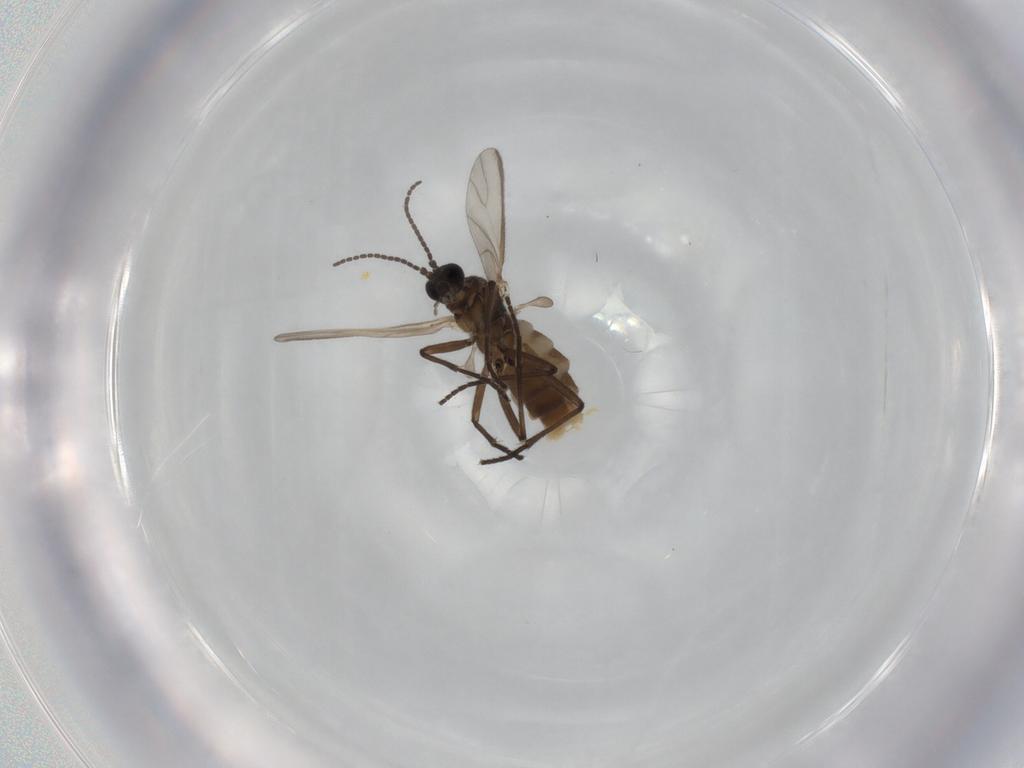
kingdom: Animalia
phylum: Arthropoda
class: Insecta
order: Diptera
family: Sciaridae
